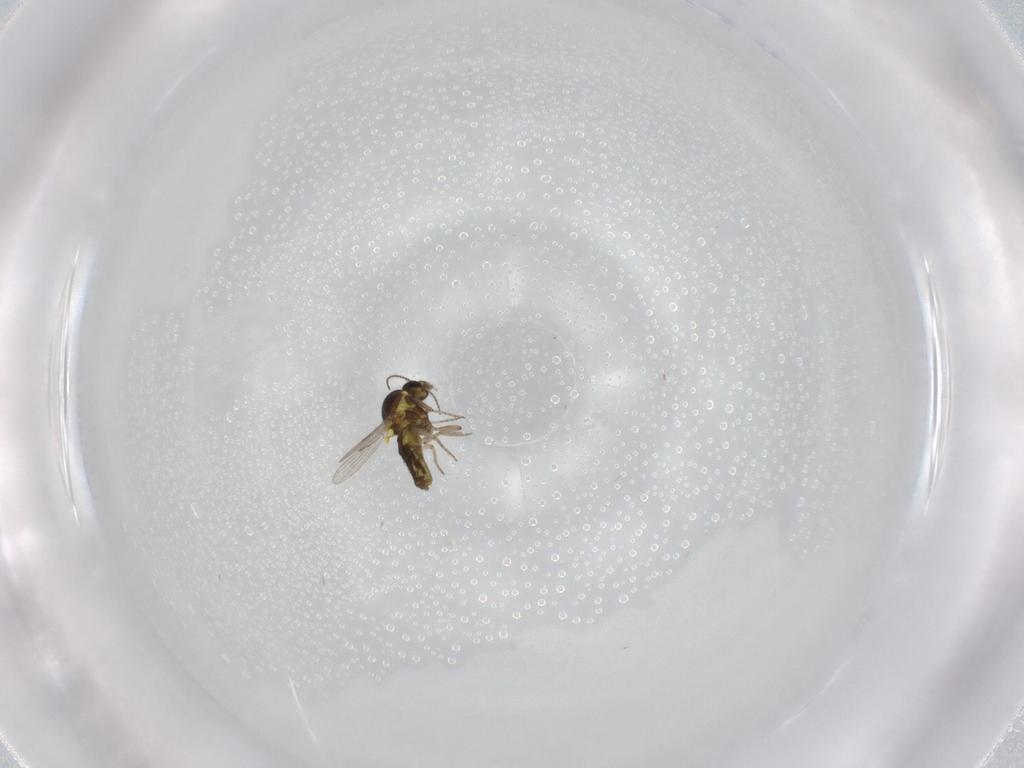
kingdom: Animalia
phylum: Arthropoda
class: Insecta
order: Diptera
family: Ceratopogonidae
